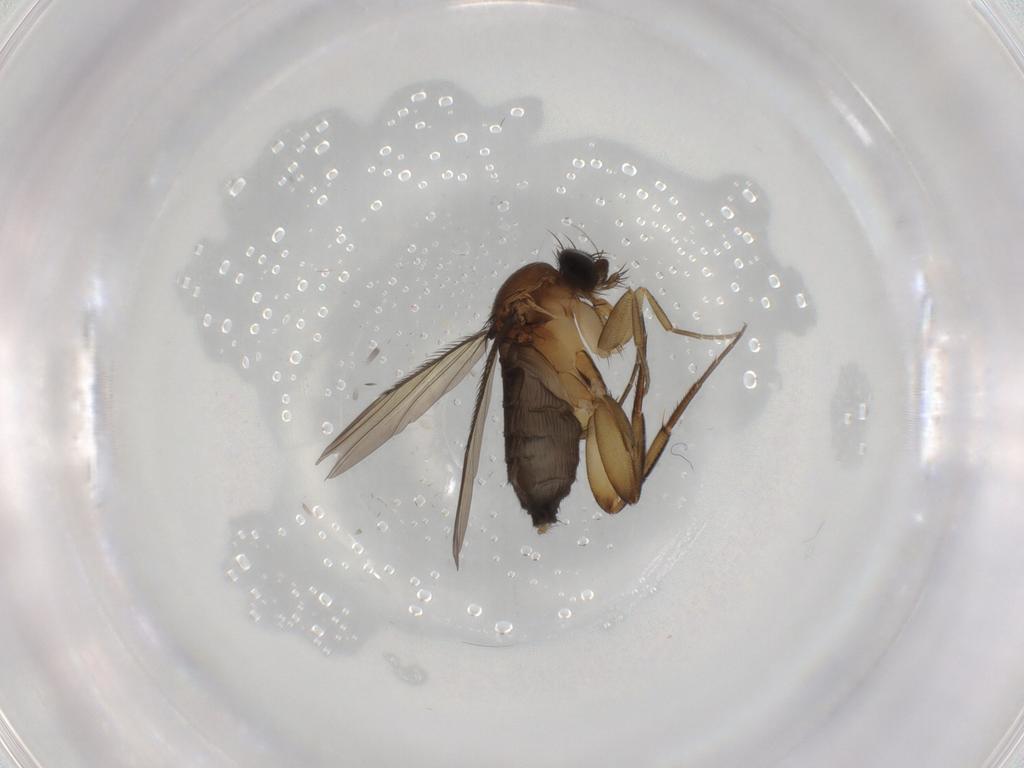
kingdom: Animalia
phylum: Arthropoda
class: Insecta
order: Diptera
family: Phoridae
